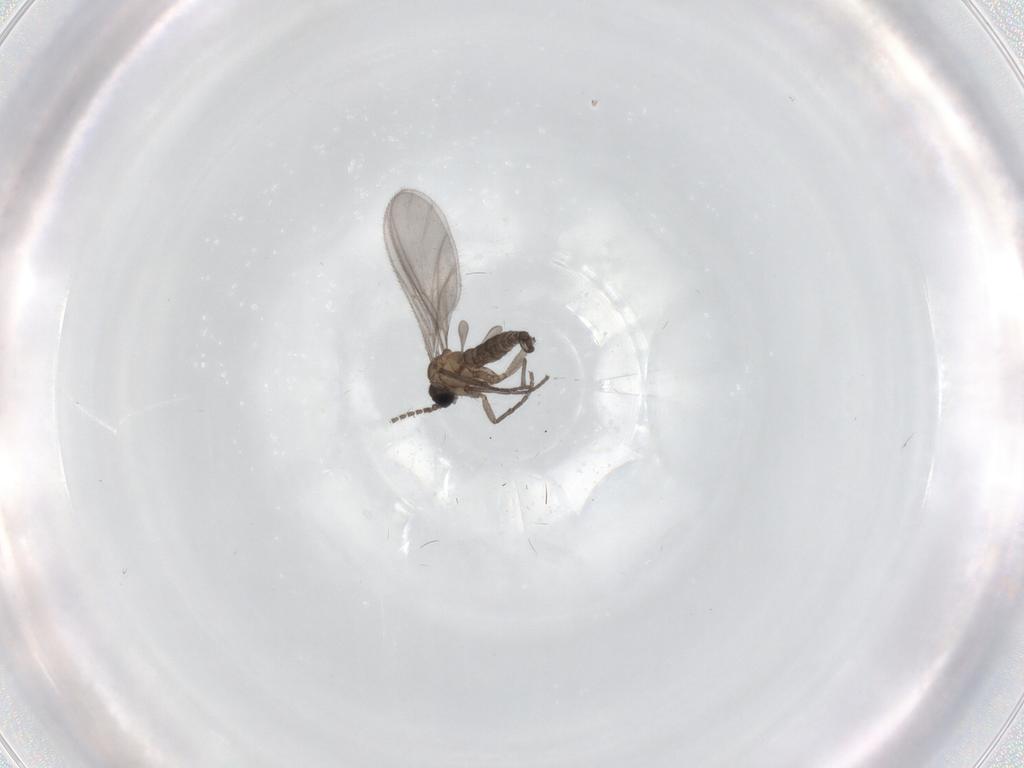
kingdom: Animalia
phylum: Arthropoda
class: Insecta
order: Diptera
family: Sciaridae
